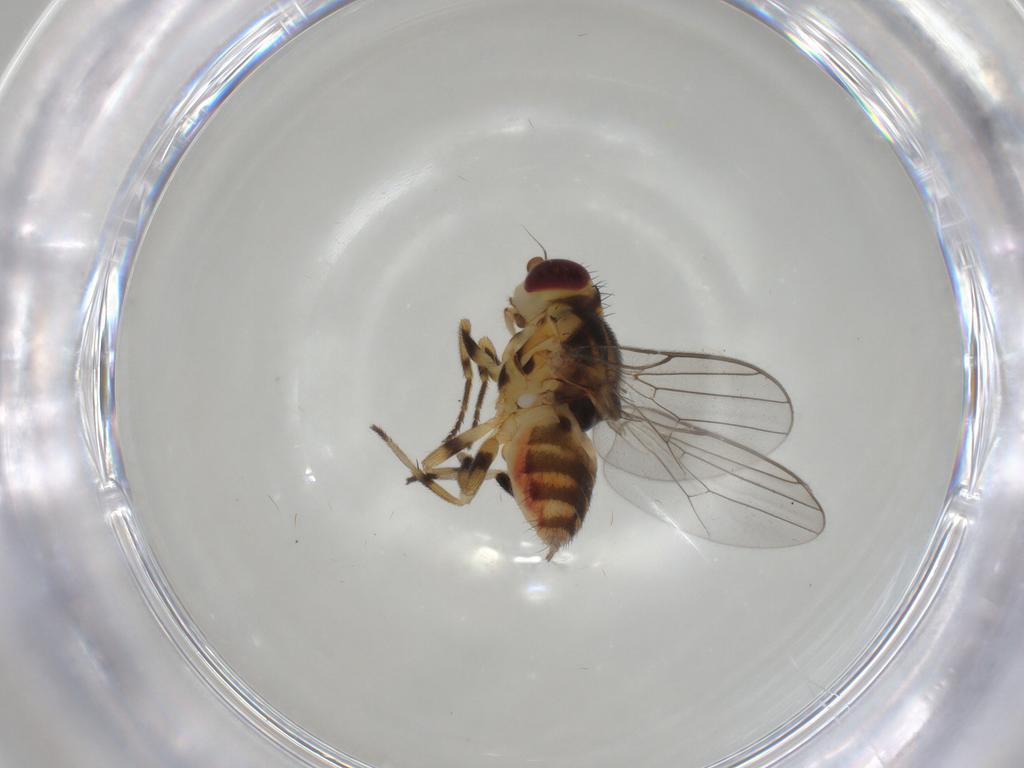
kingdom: Animalia
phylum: Arthropoda
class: Insecta
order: Diptera
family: Chloropidae
